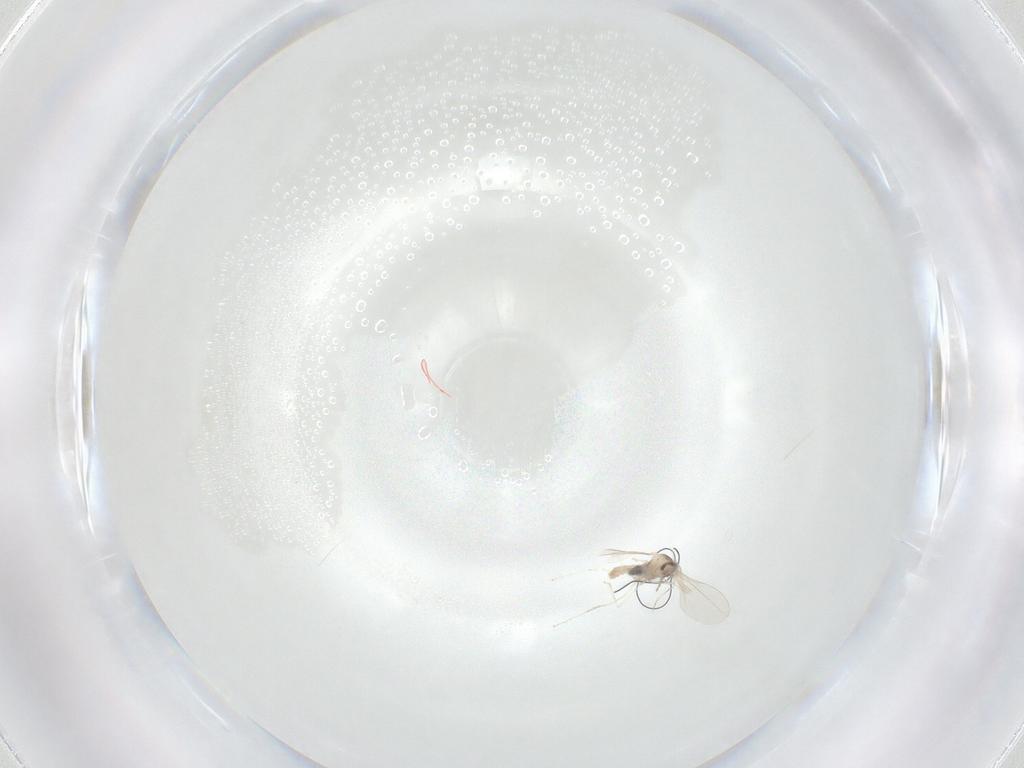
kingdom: Animalia
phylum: Arthropoda
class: Insecta
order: Diptera
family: Cecidomyiidae
